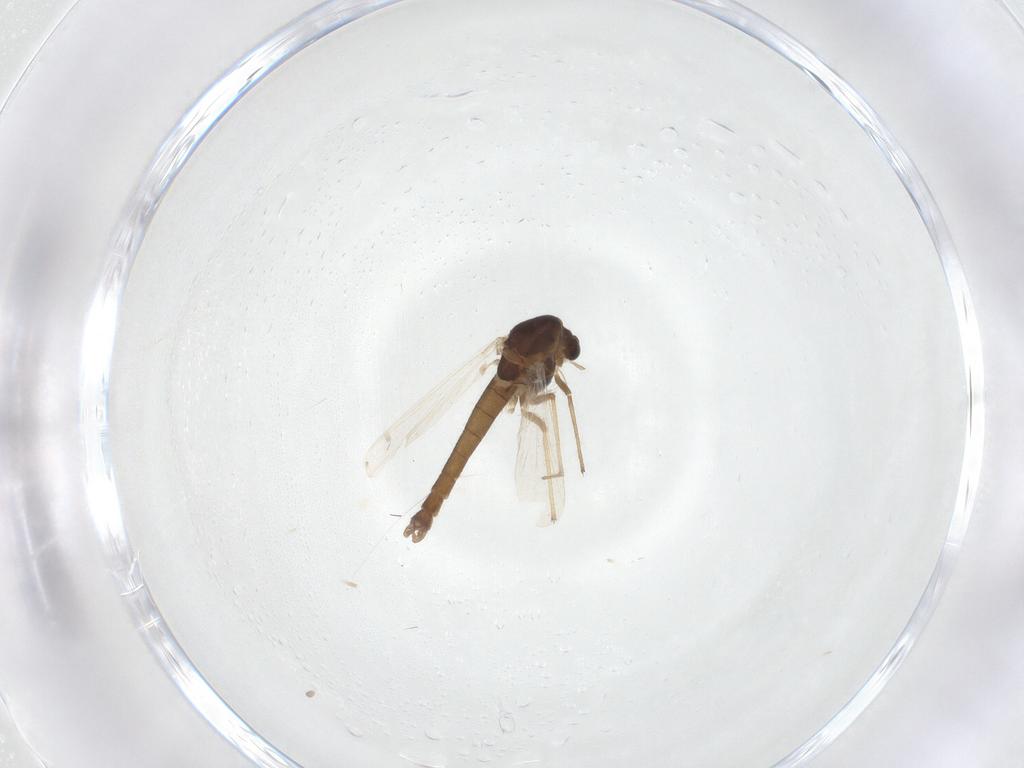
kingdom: Animalia
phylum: Arthropoda
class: Insecta
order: Diptera
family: Chironomidae
